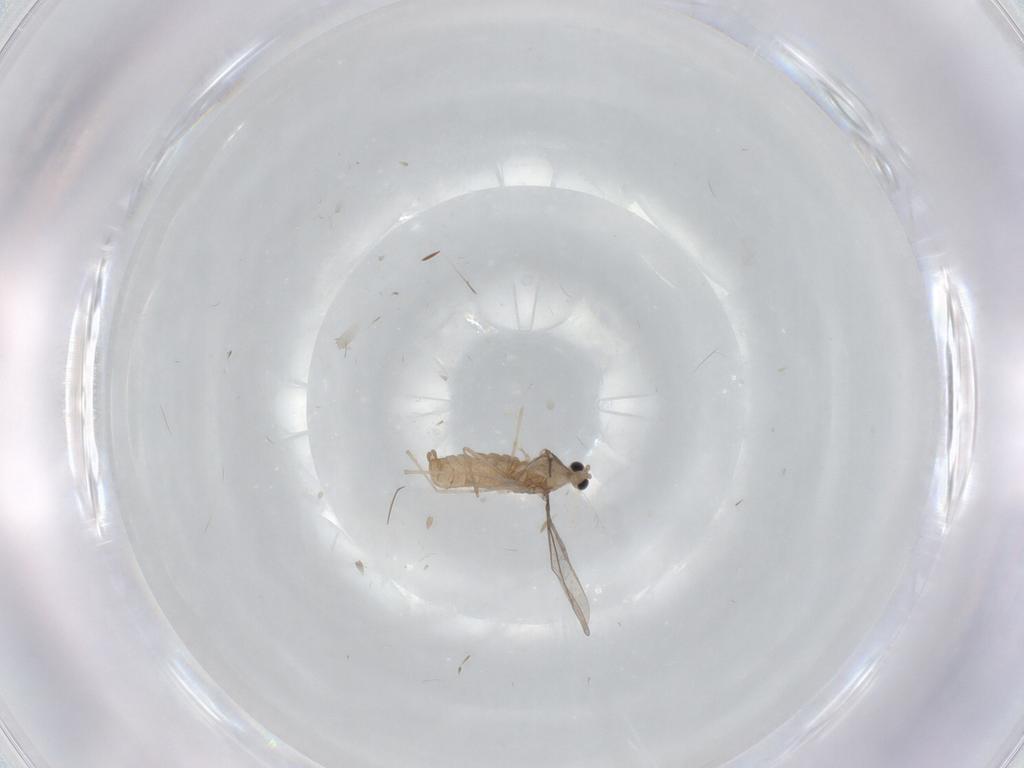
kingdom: Animalia
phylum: Arthropoda
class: Insecta
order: Diptera
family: Cecidomyiidae
